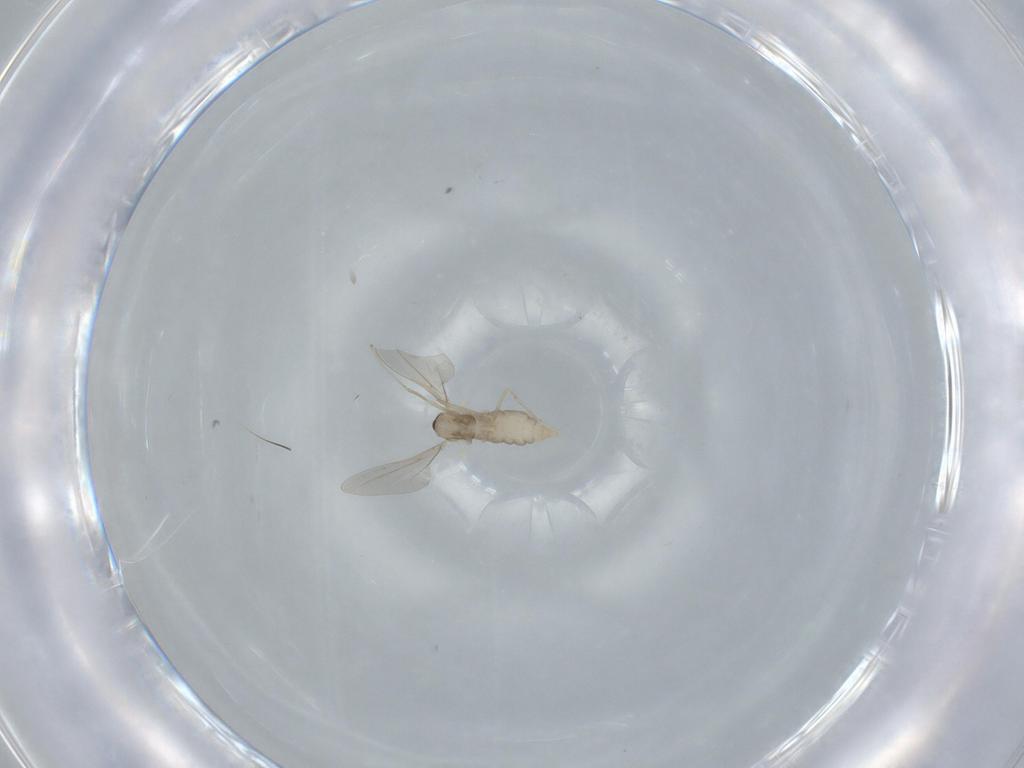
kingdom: Animalia
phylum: Arthropoda
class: Insecta
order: Diptera
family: Cecidomyiidae
